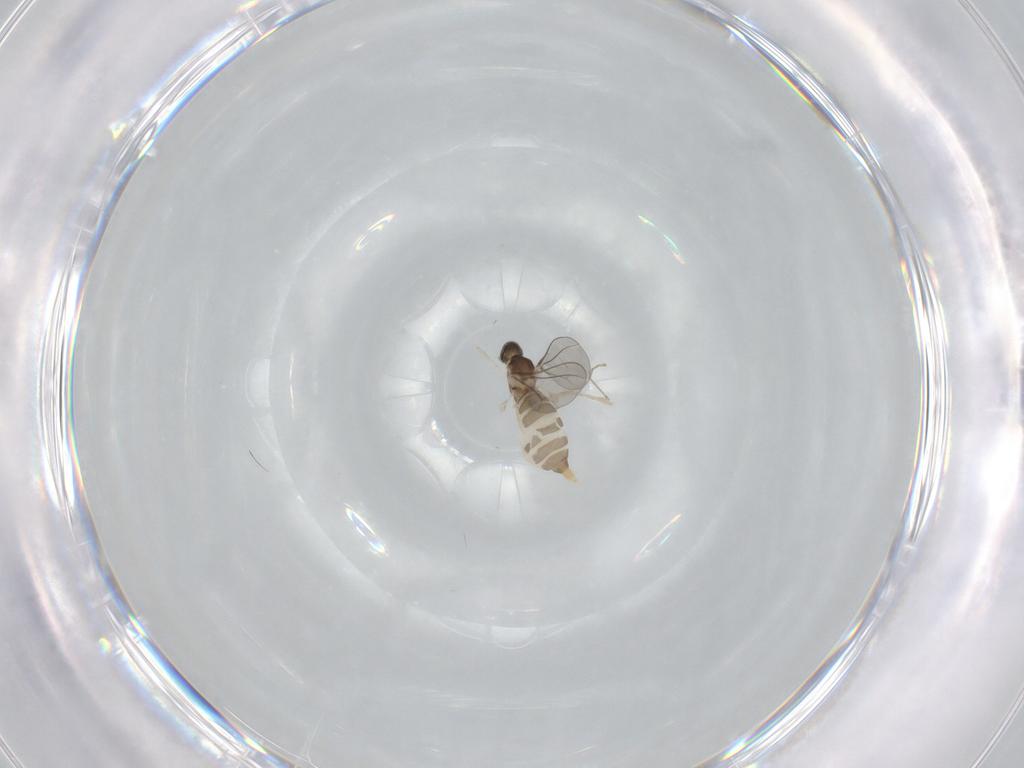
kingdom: Animalia
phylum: Arthropoda
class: Insecta
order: Diptera
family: Cecidomyiidae
